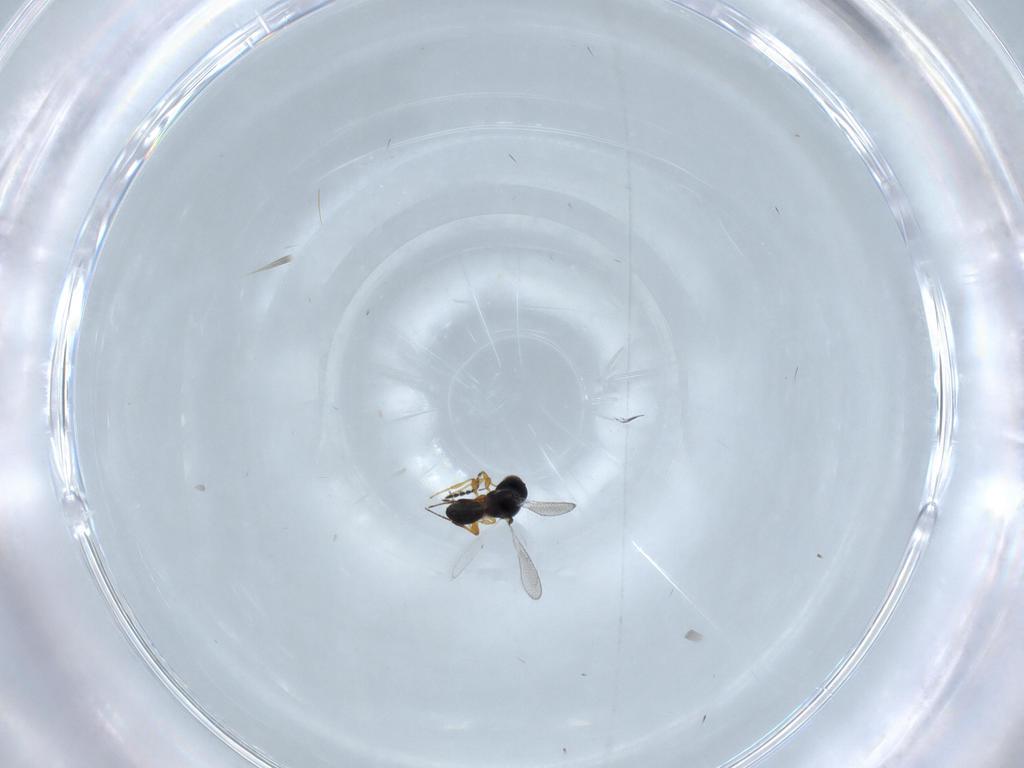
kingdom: Animalia
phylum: Arthropoda
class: Insecta
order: Hymenoptera
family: Platygastridae
